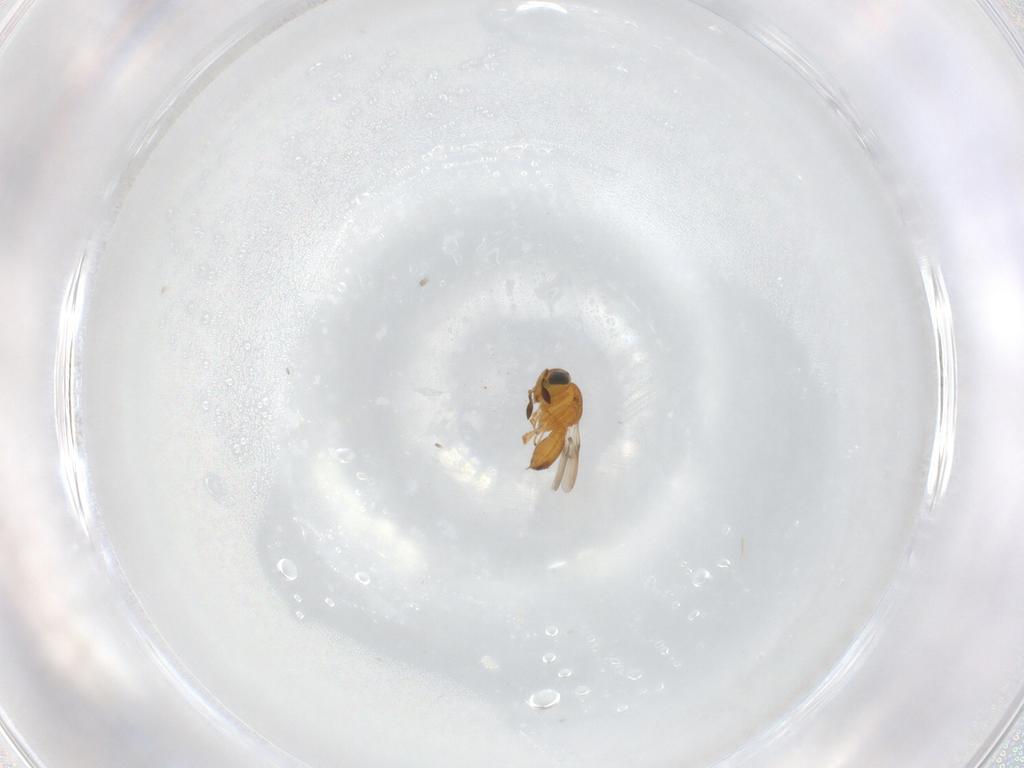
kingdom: Animalia
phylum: Arthropoda
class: Insecta
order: Hymenoptera
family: Scelionidae
